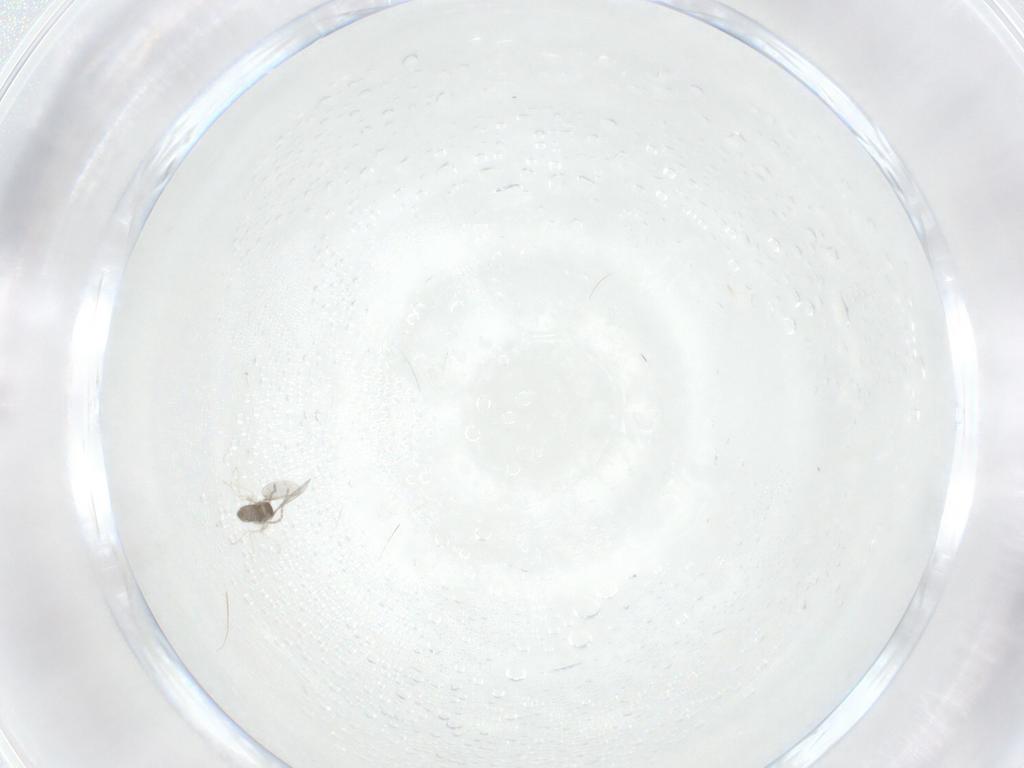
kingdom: Animalia
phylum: Arthropoda
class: Insecta
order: Diptera
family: Cecidomyiidae
